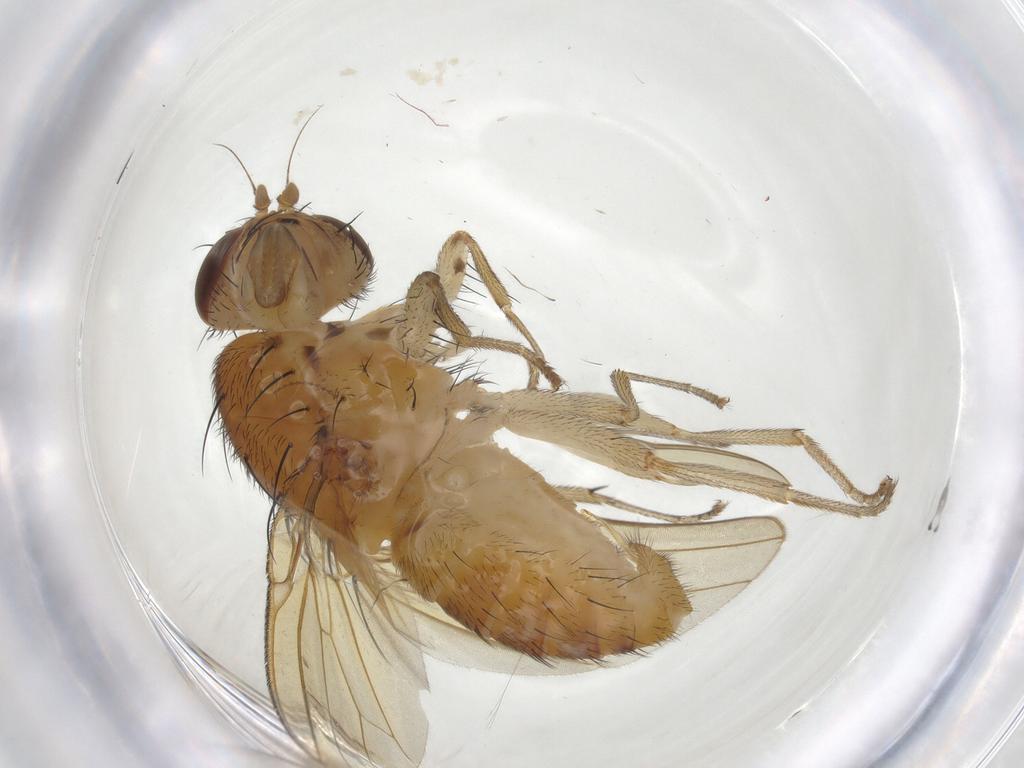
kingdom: Animalia
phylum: Arthropoda
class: Insecta
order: Diptera
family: Lauxaniidae
